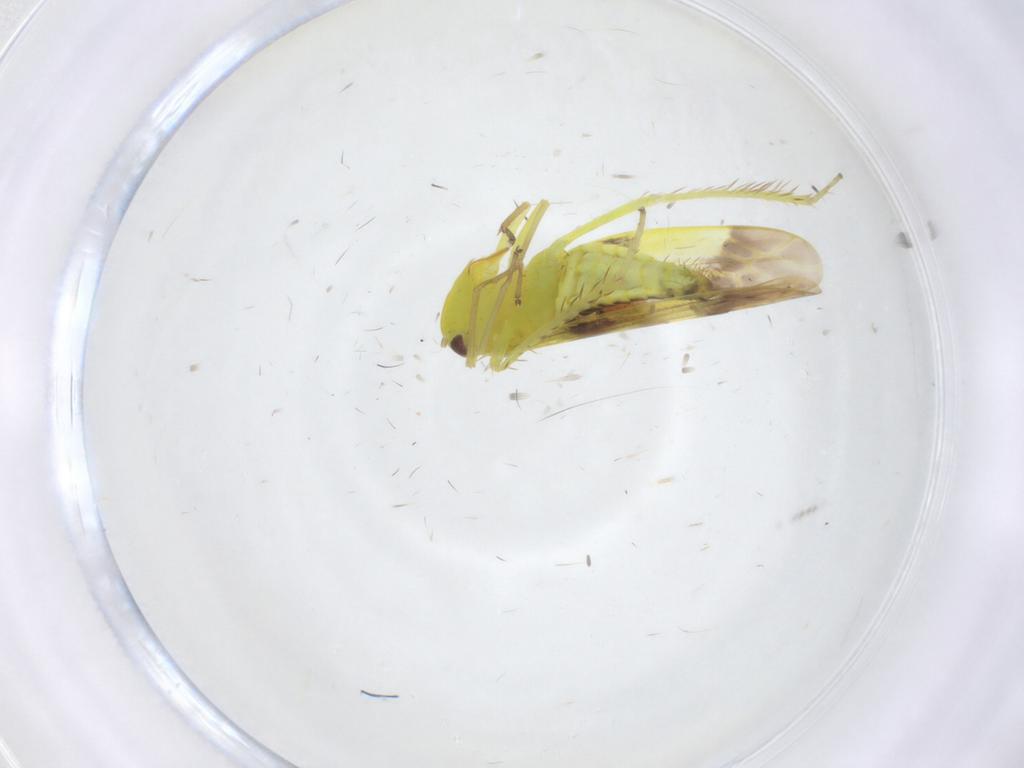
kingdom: Animalia
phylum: Arthropoda
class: Insecta
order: Hemiptera
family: Cicadellidae
